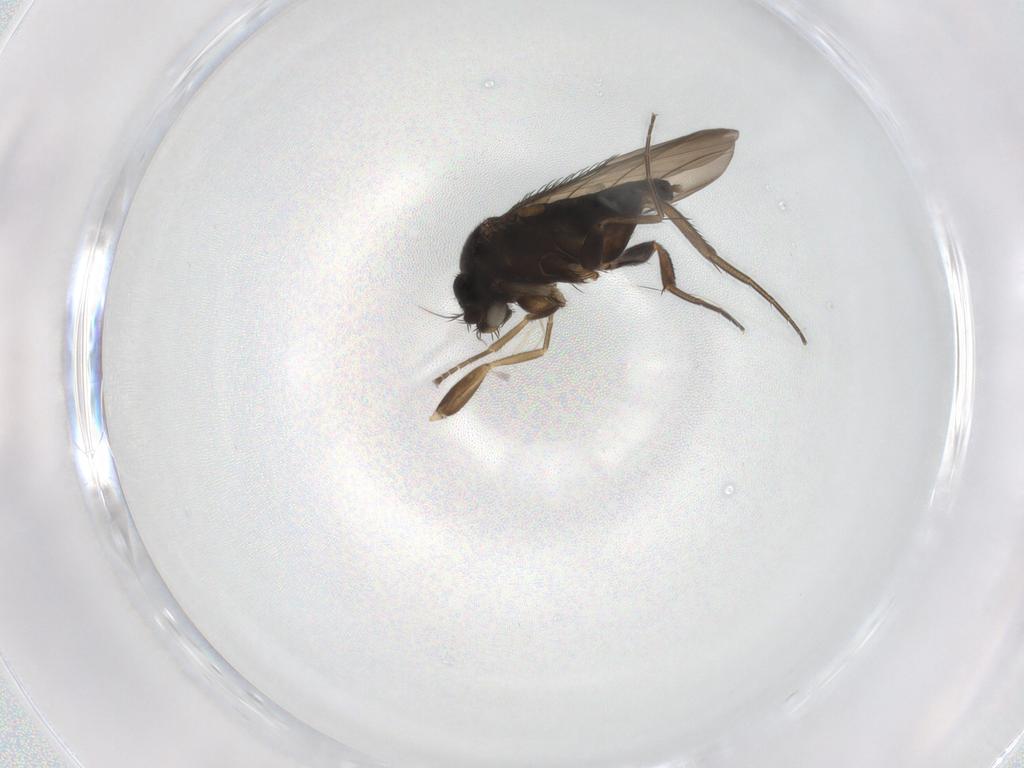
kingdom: Animalia
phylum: Arthropoda
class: Insecta
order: Diptera
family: Phoridae
